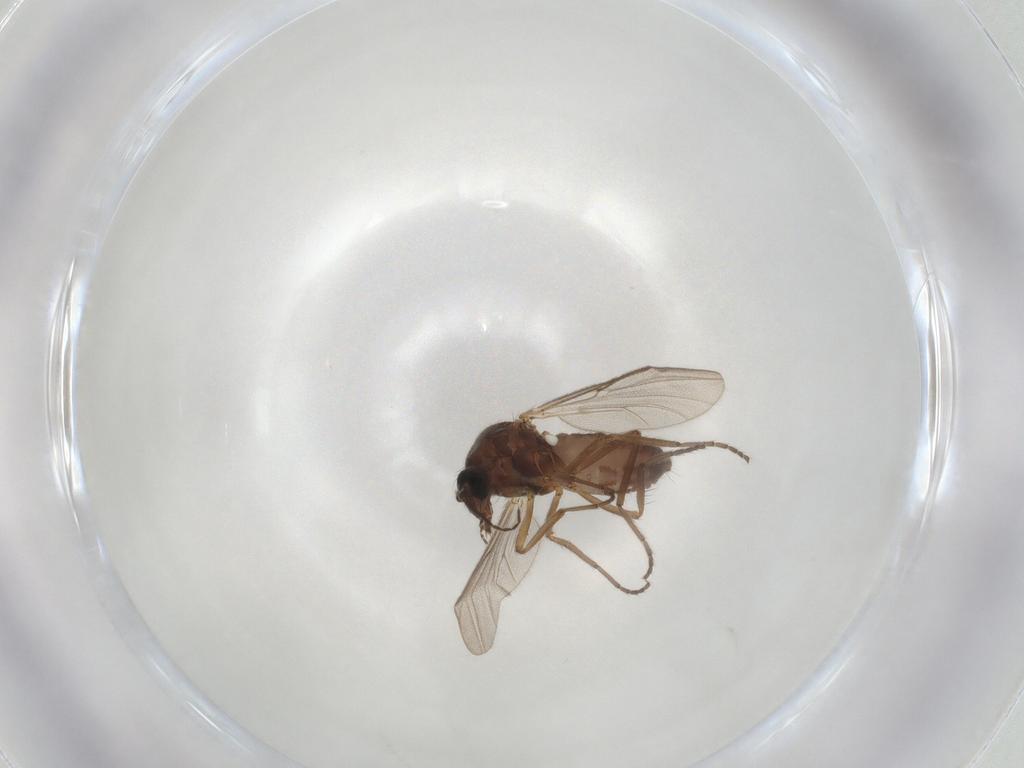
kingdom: Animalia
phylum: Arthropoda
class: Insecta
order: Diptera
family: Ceratopogonidae
